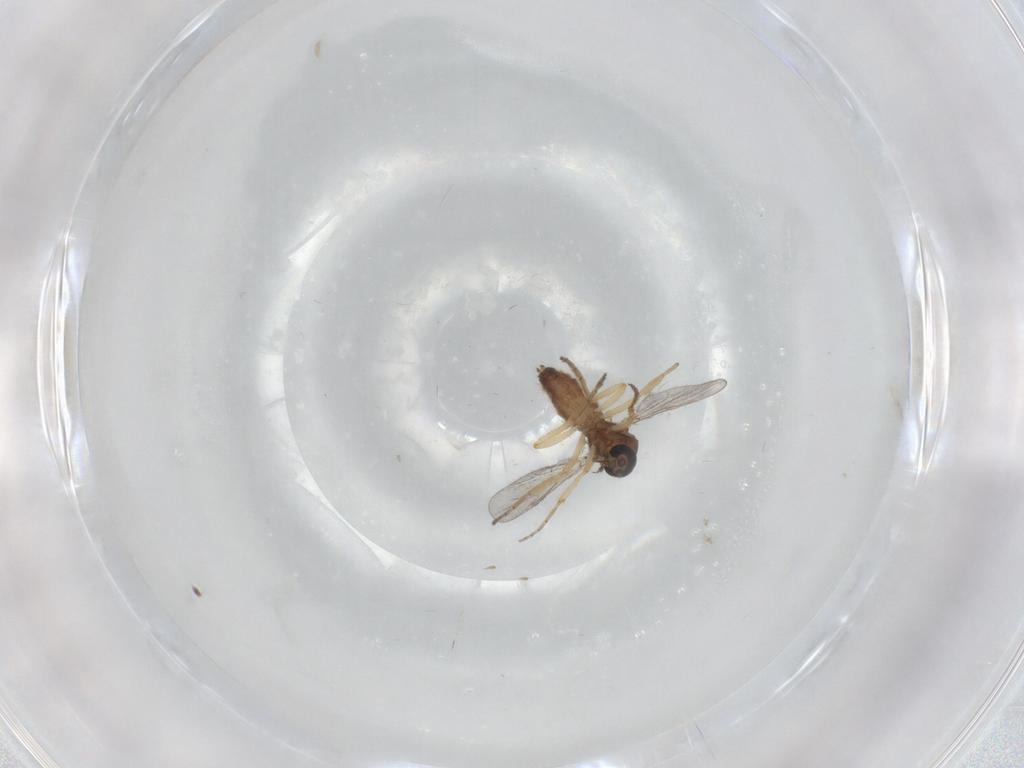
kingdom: Animalia
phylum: Arthropoda
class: Insecta
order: Diptera
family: Ceratopogonidae
